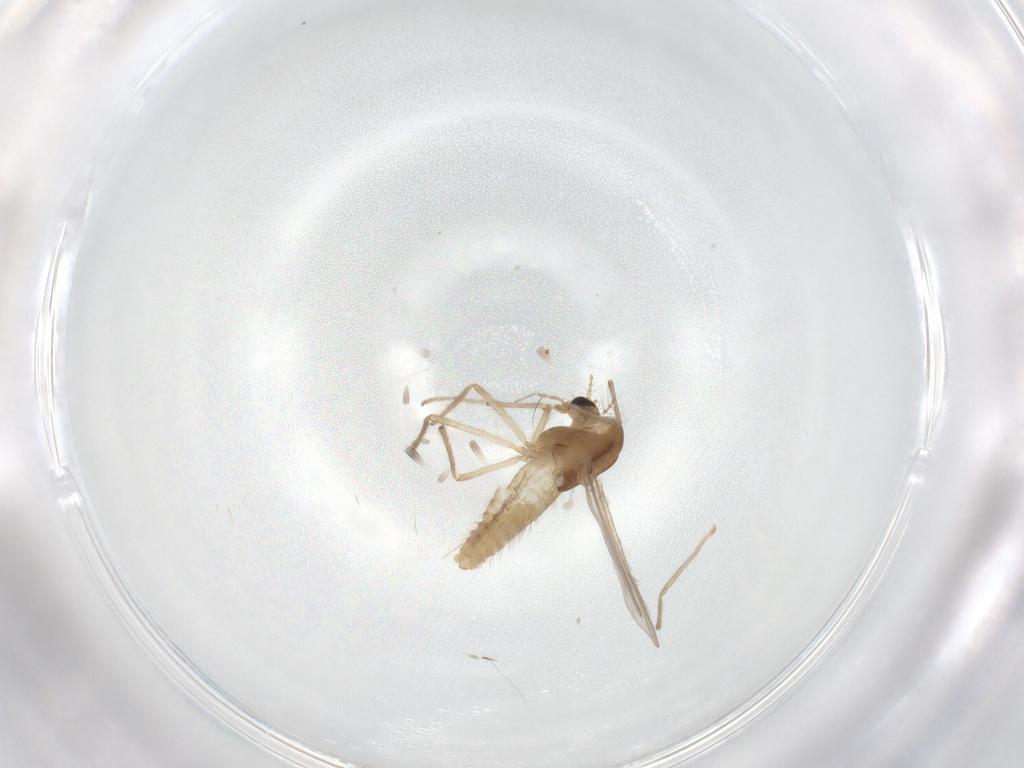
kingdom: Animalia
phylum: Arthropoda
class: Insecta
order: Diptera
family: Chironomidae
